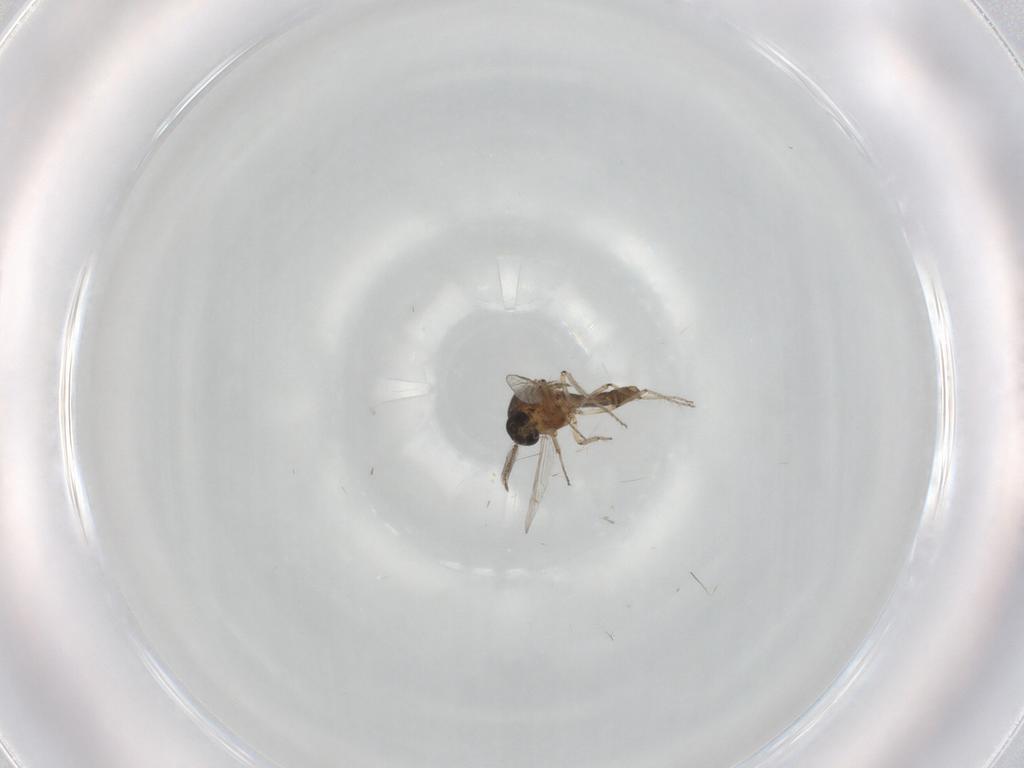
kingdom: Animalia
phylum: Arthropoda
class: Insecta
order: Diptera
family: Ceratopogonidae
